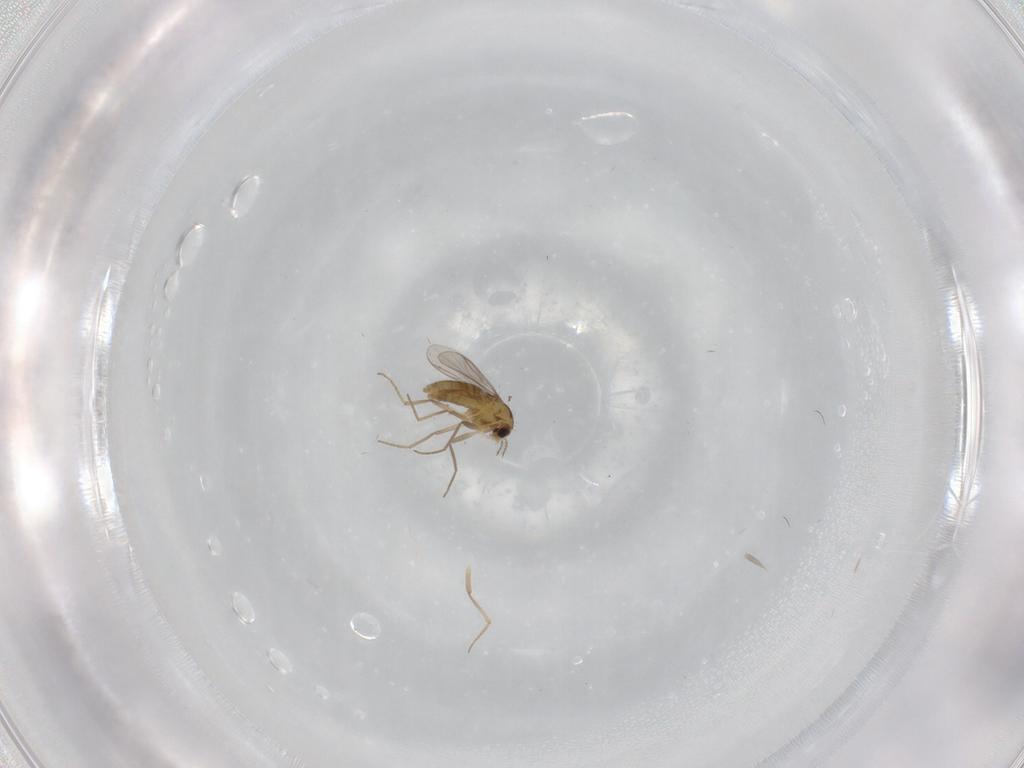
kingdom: Animalia
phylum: Arthropoda
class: Insecta
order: Diptera
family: Chironomidae
